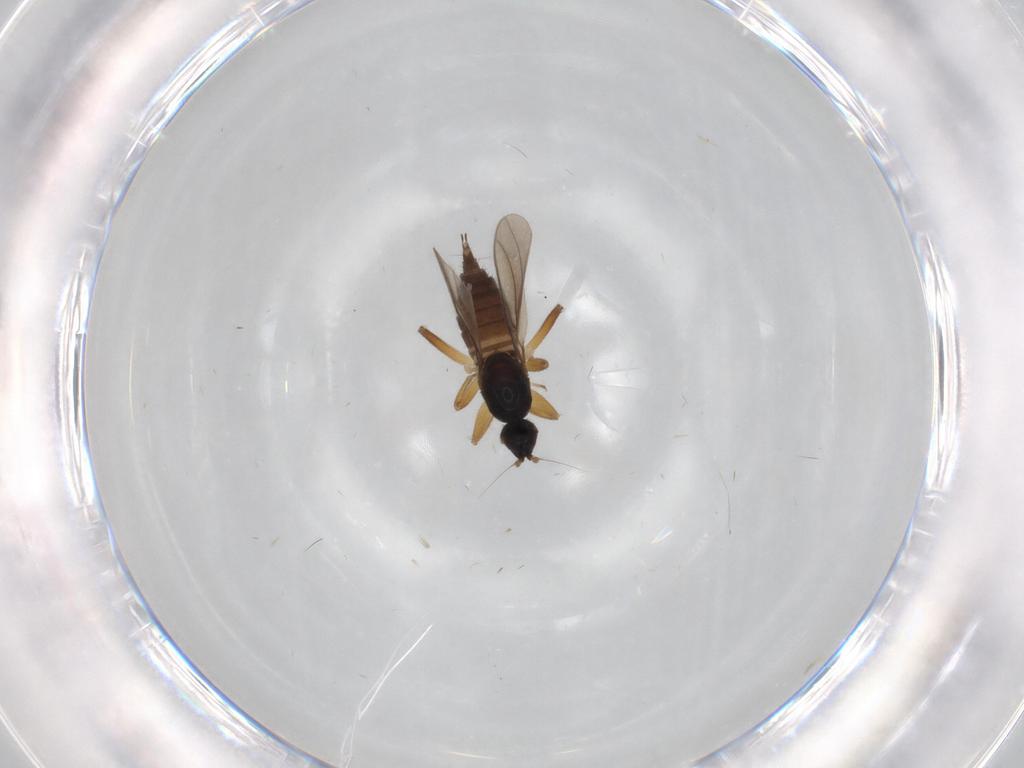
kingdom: Animalia
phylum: Arthropoda
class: Insecta
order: Diptera
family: Hybotidae
